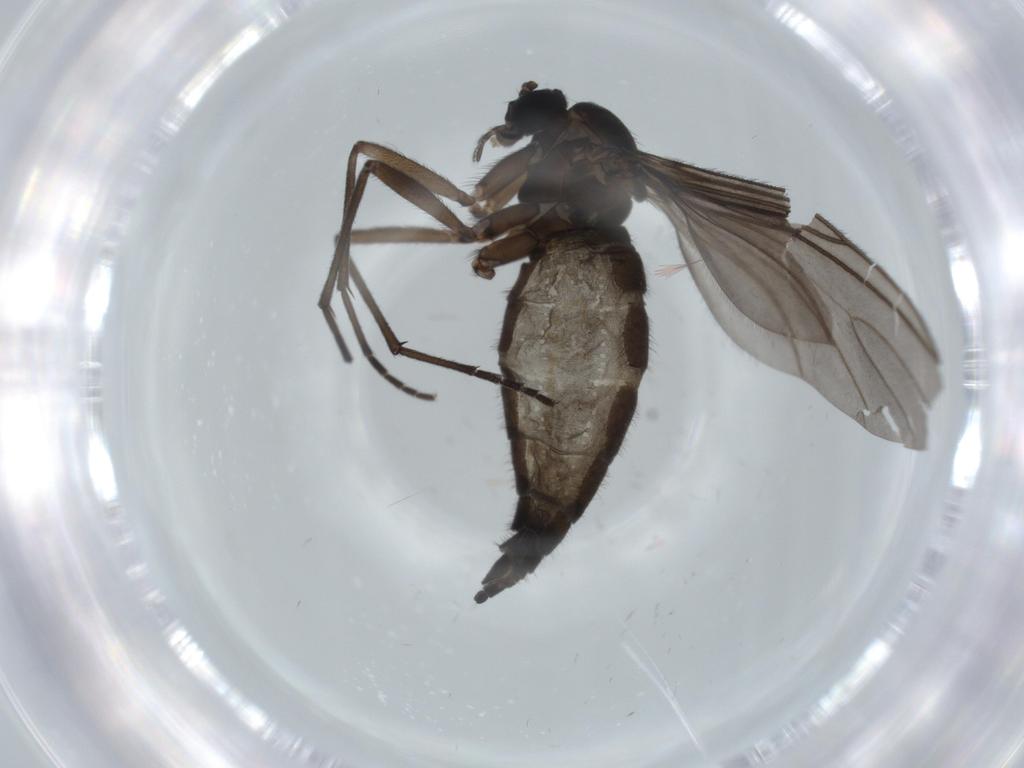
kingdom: Animalia
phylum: Arthropoda
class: Insecta
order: Diptera
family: Sciaridae
